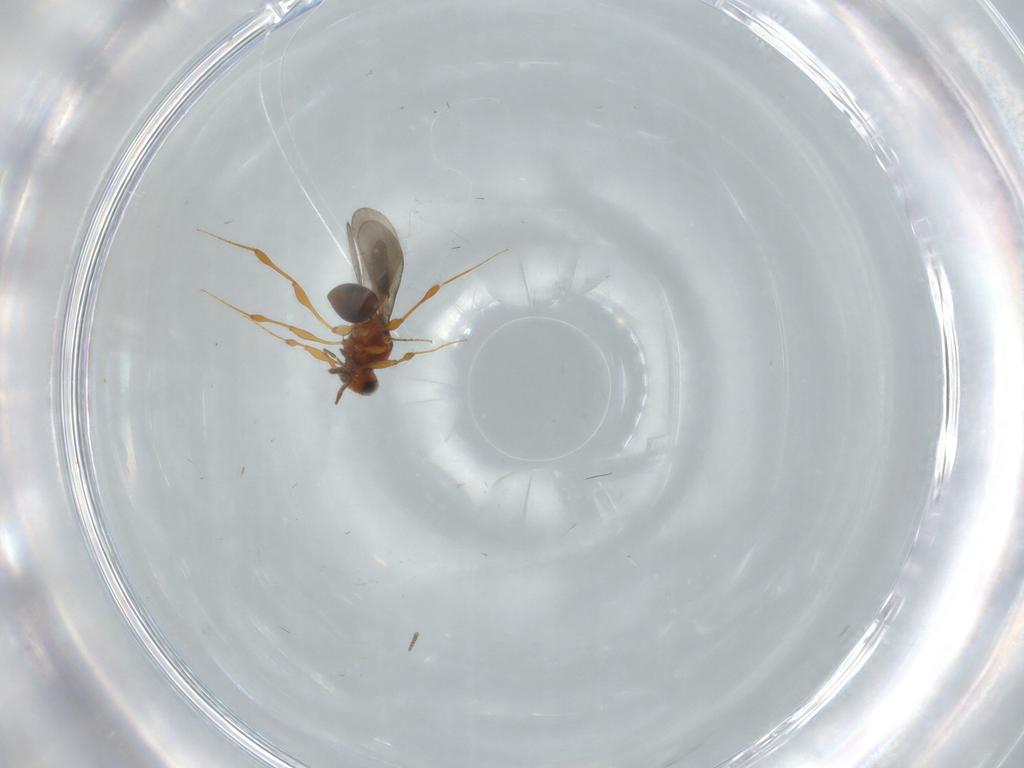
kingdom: Animalia
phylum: Arthropoda
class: Insecta
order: Hymenoptera
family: Platygastridae
